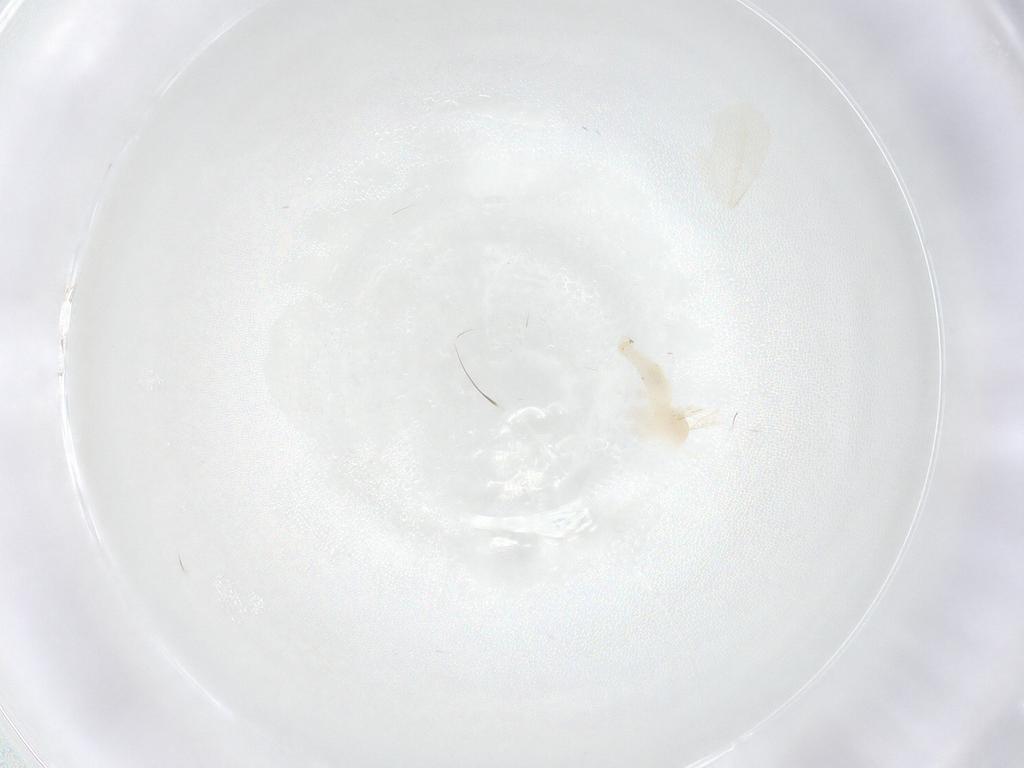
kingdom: Animalia
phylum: Arthropoda
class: Insecta
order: Diptera
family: Cecidomyiidae
